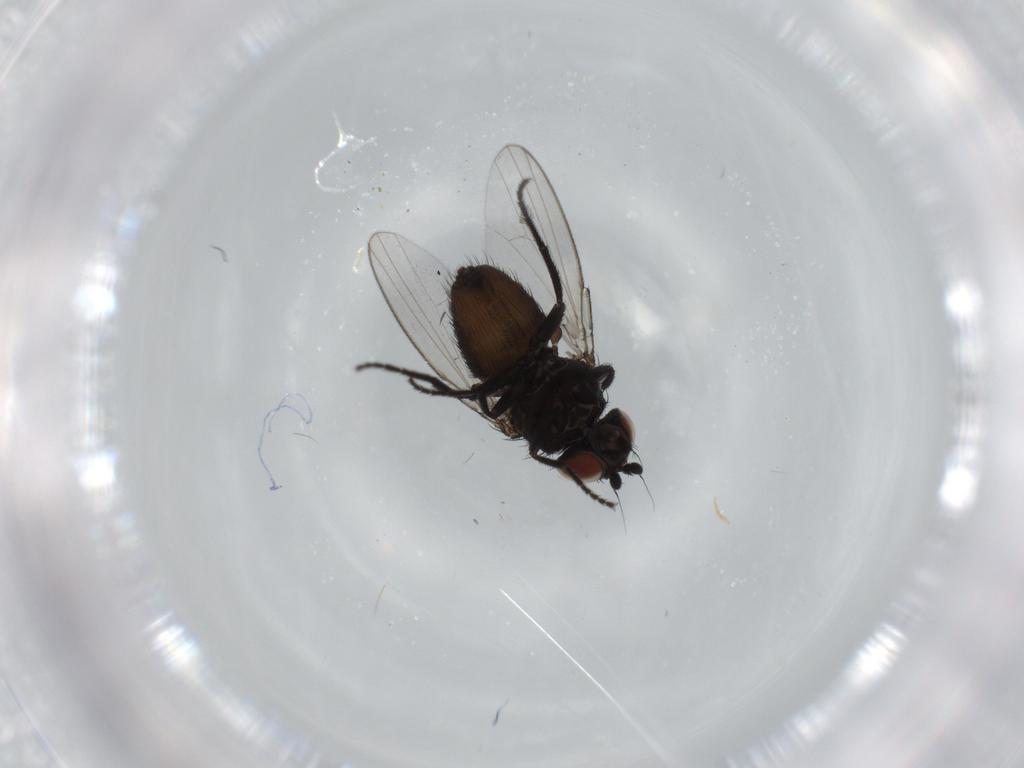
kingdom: Animalia
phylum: Arthropoda
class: Insecta
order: Diptera
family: Milichiidae
